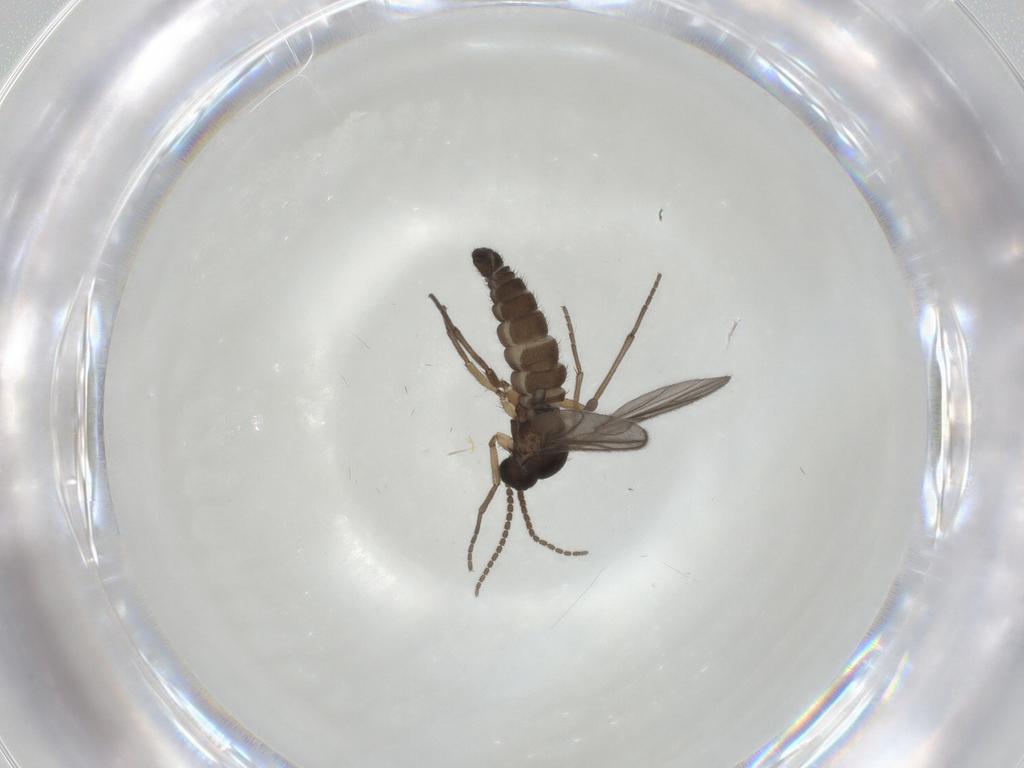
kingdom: Animalia
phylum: Arthropoda
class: Insecta
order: Diptera
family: Sciaridae
